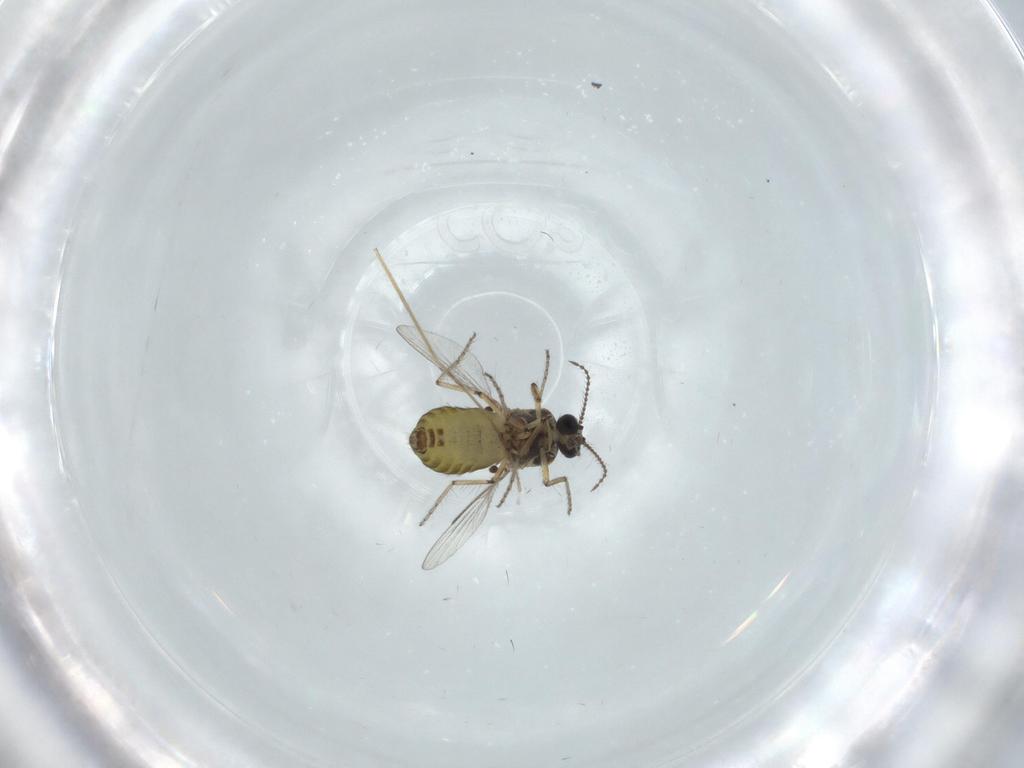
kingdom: Animalia
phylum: Arthropoda
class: Insecta
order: Diptera
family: Ceratopogonidae
